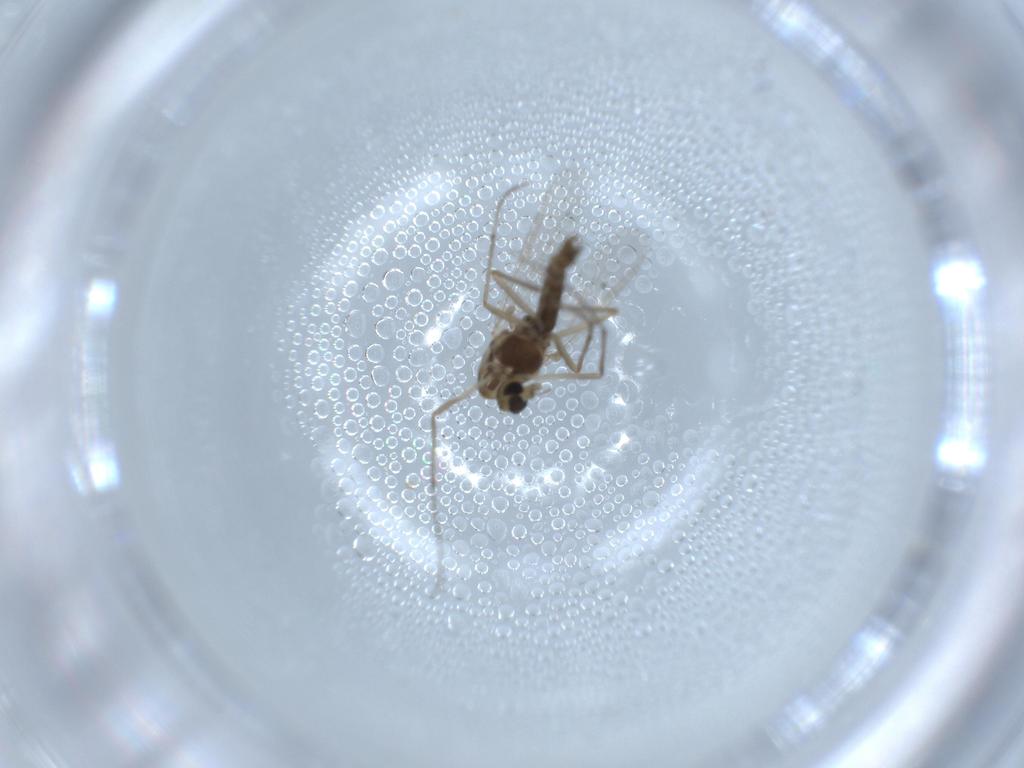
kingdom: Animalia
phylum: Arthropoda
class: Insecta
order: Diptera
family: Chironomidae
